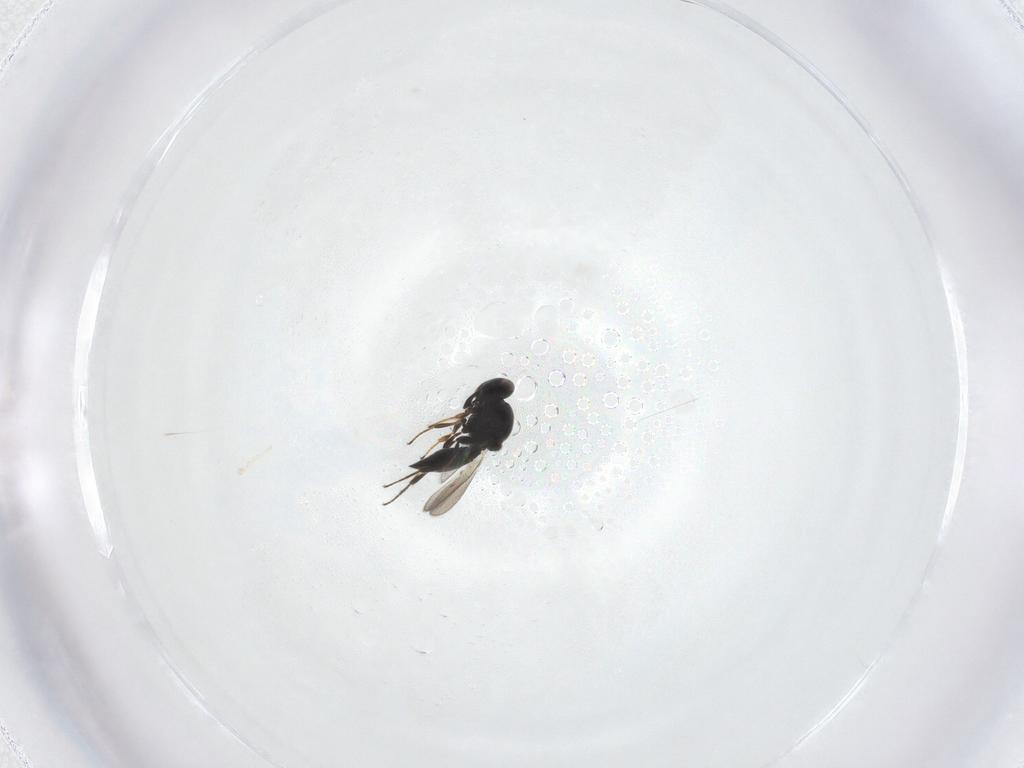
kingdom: Animalia
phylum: Arthropoda
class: Insecta
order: Hymenoptera
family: Platygastridae
